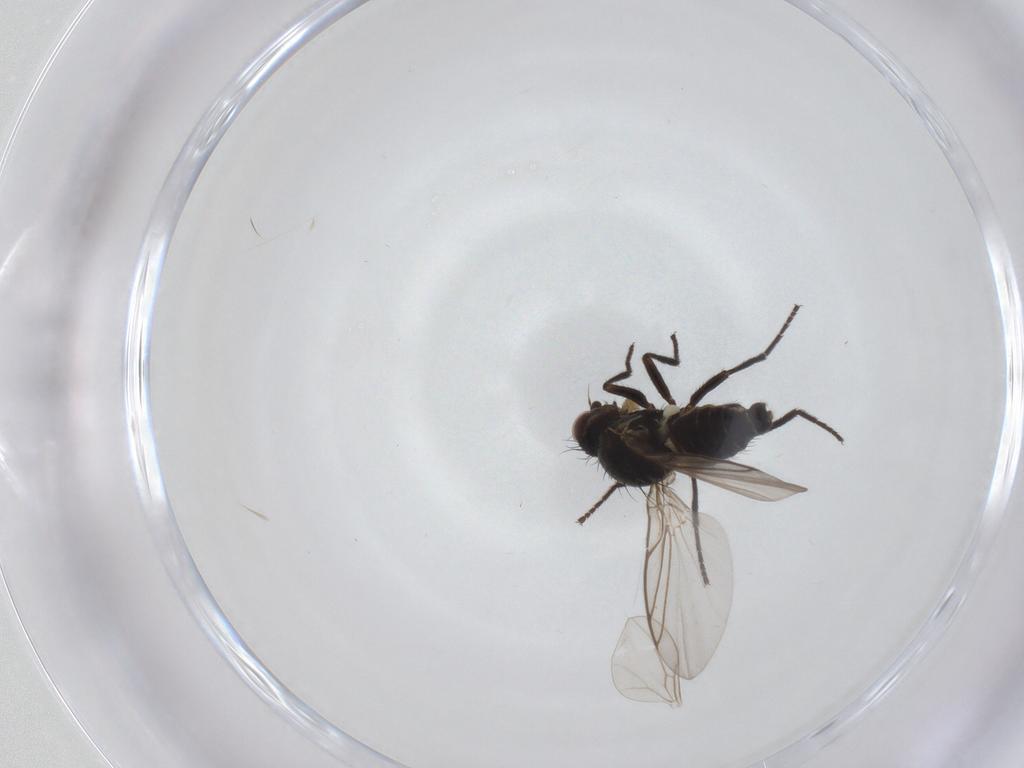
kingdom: Animalia
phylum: Arthropoda
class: Insecta
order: Diptera
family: Agromyzidae
